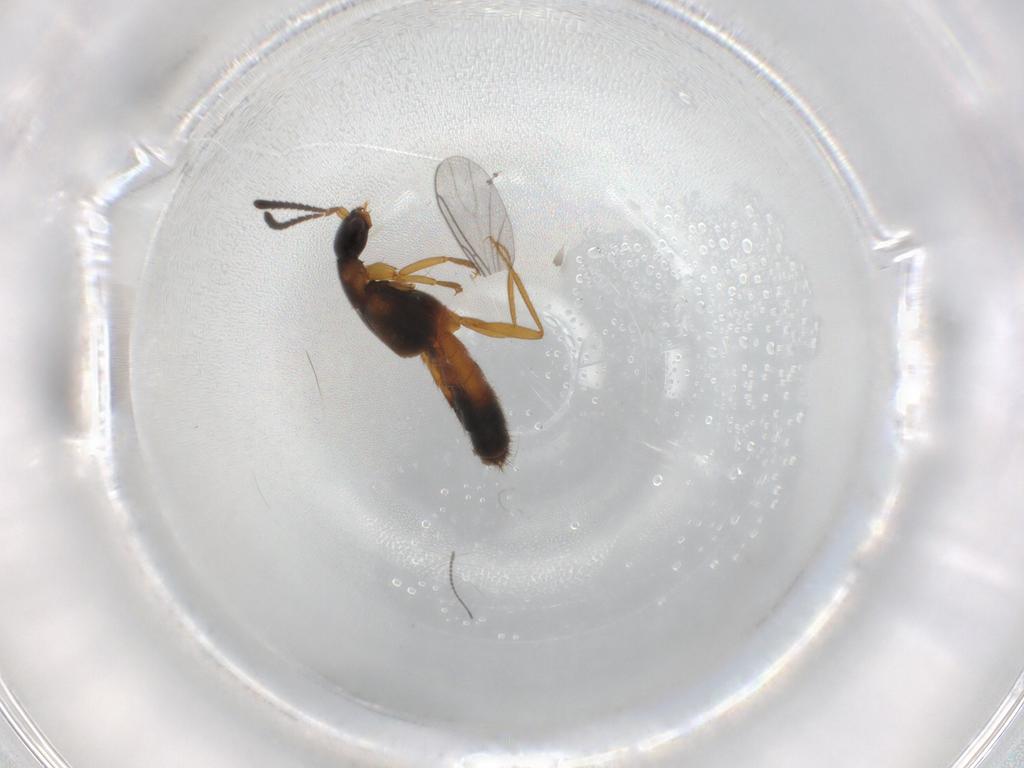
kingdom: Animalia
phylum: Arthropoda
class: Insecta
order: Coleoptera
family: Staphylinidae
